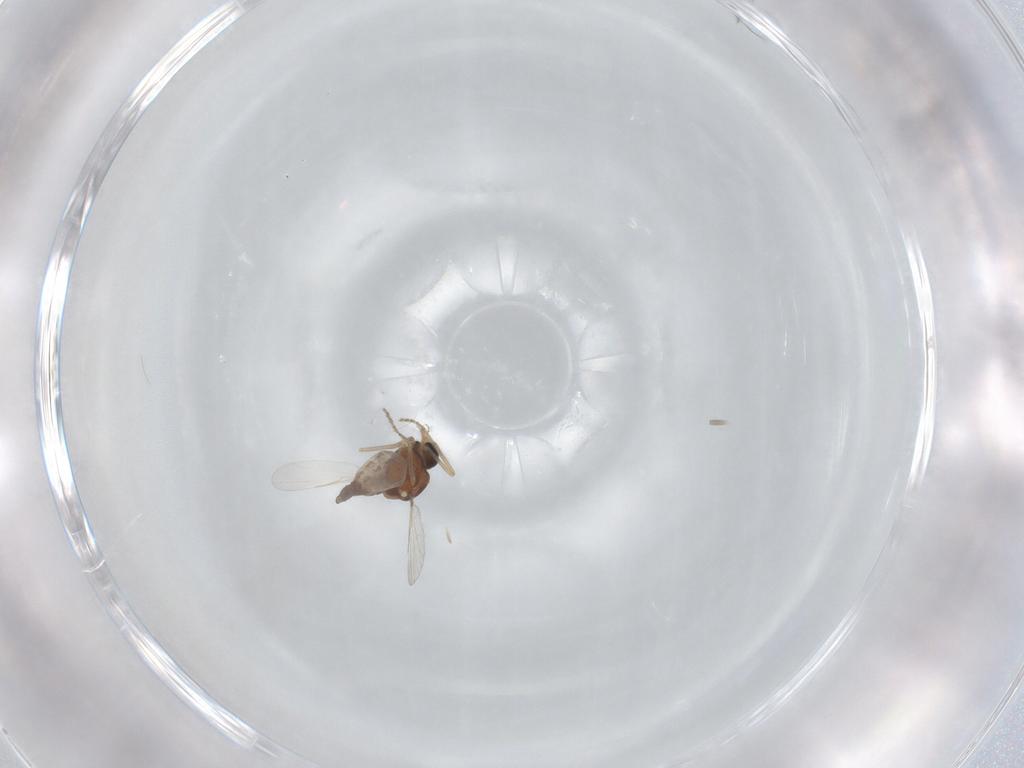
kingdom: Animalia
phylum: Arthropoda
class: Insecta
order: Diptera
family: Ceratopogonidae
